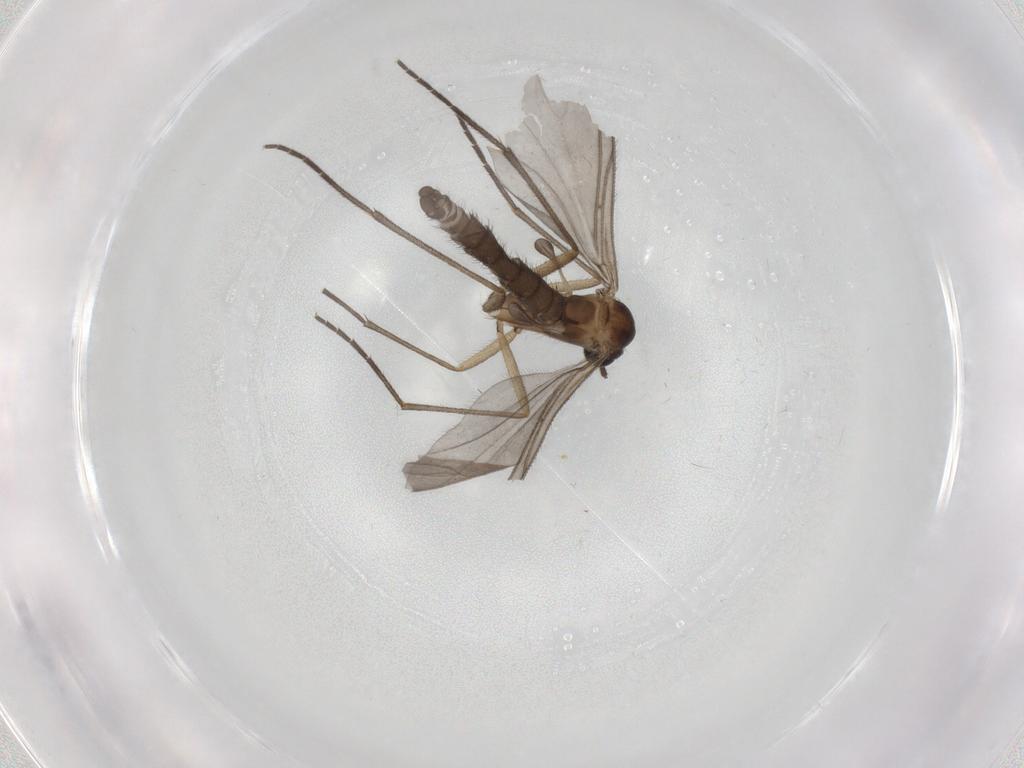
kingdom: Animalia
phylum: Arthropoda
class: Insecta
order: Diptera
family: Sciaridae
